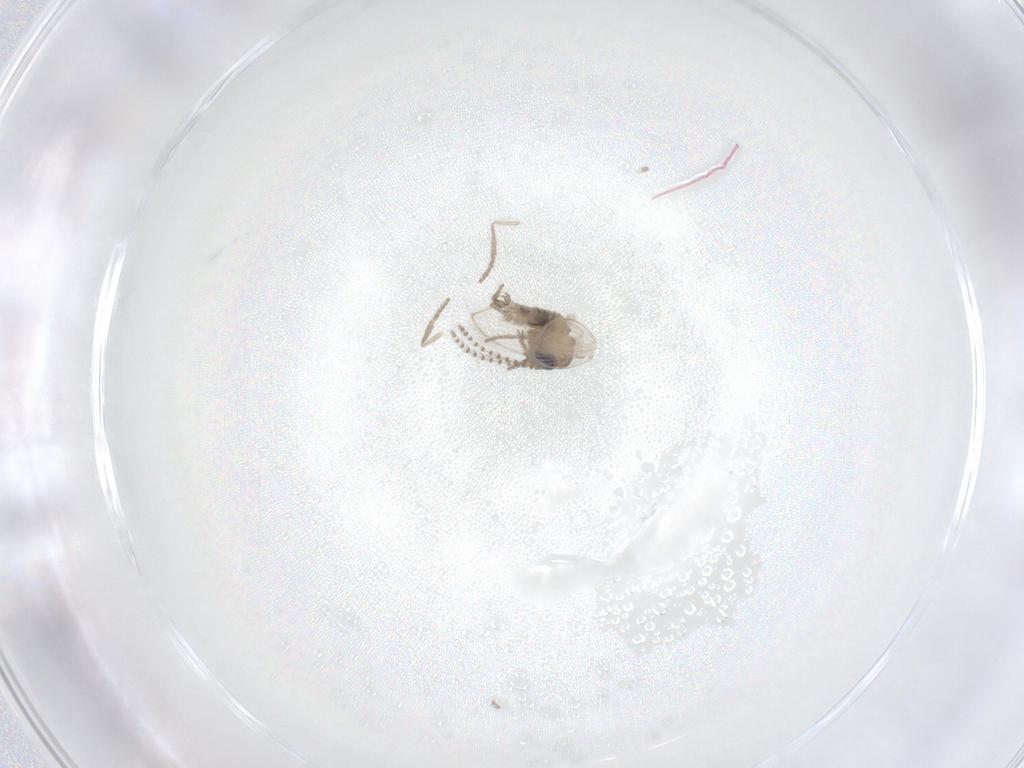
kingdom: Animalia
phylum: Arthropoda
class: Insecta
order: Diptera
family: Psychodidae
